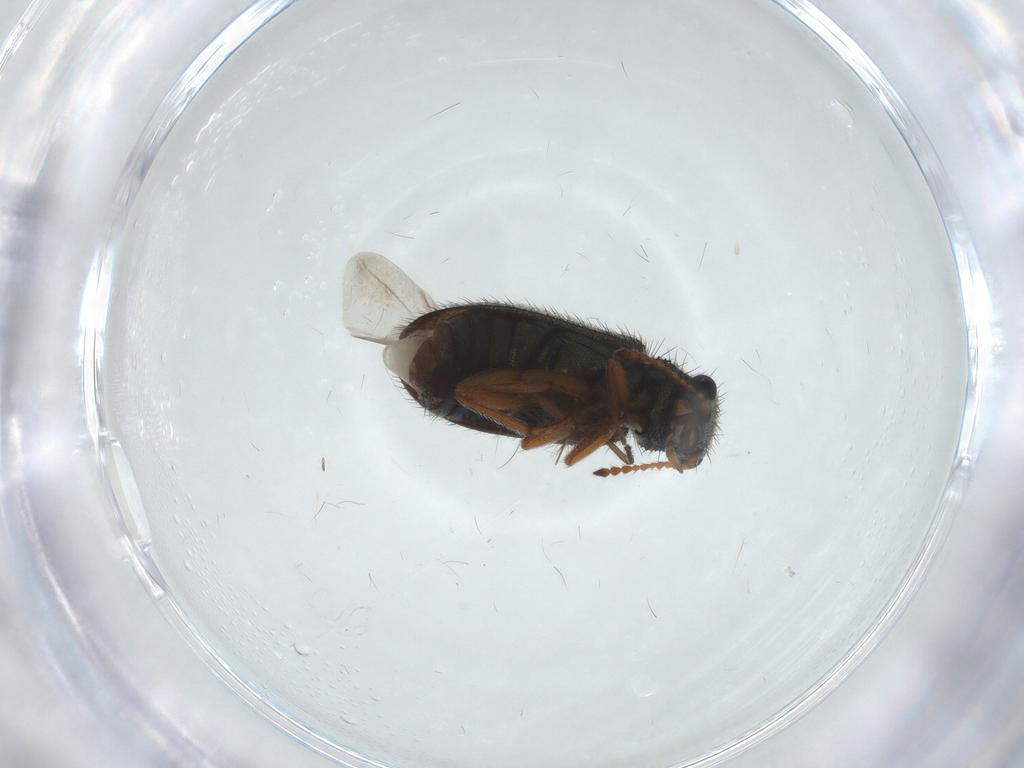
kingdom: Animalia
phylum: Arthropoda
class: Insecta
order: Coleoptera
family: Melyridae
